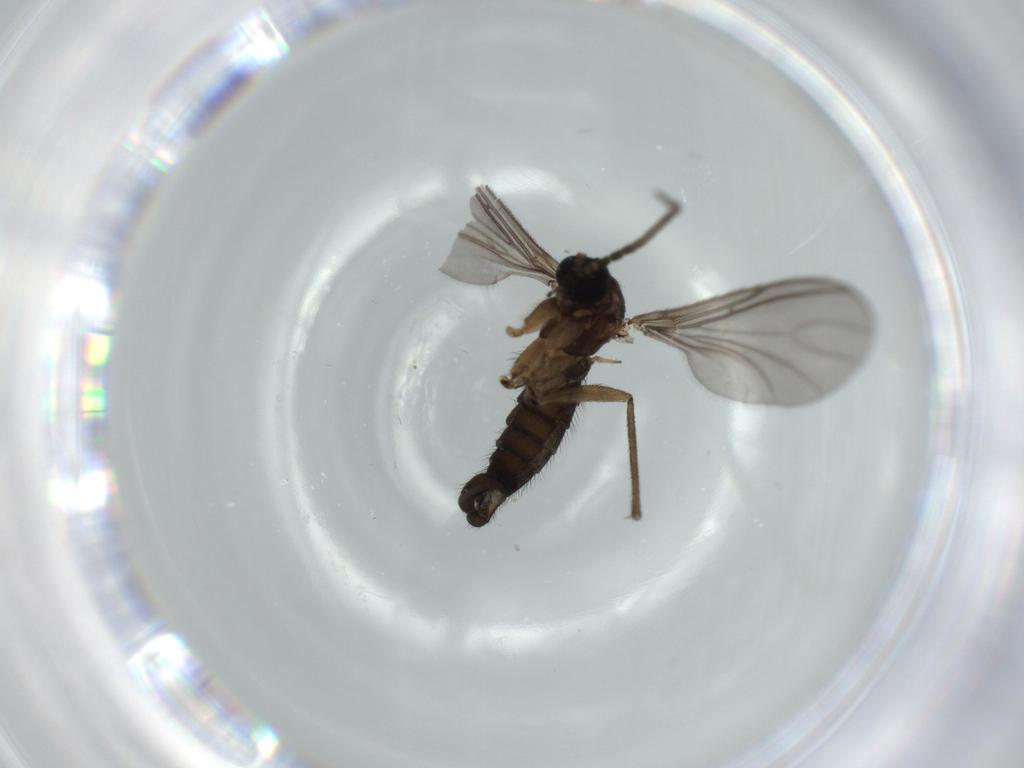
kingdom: Animalia
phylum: Arthropoda
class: Insecta
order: Diptera
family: Sciaridae
